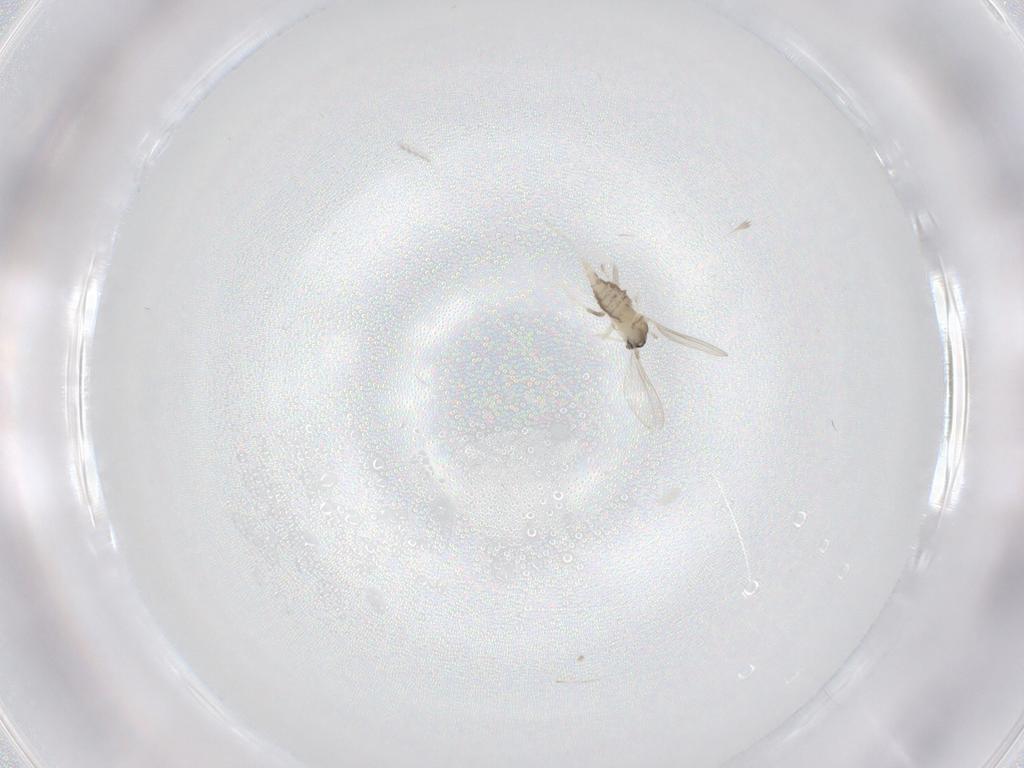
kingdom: Animalia
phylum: Arthropoda
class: Insecta
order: Diptera
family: Cecidomyiidae
